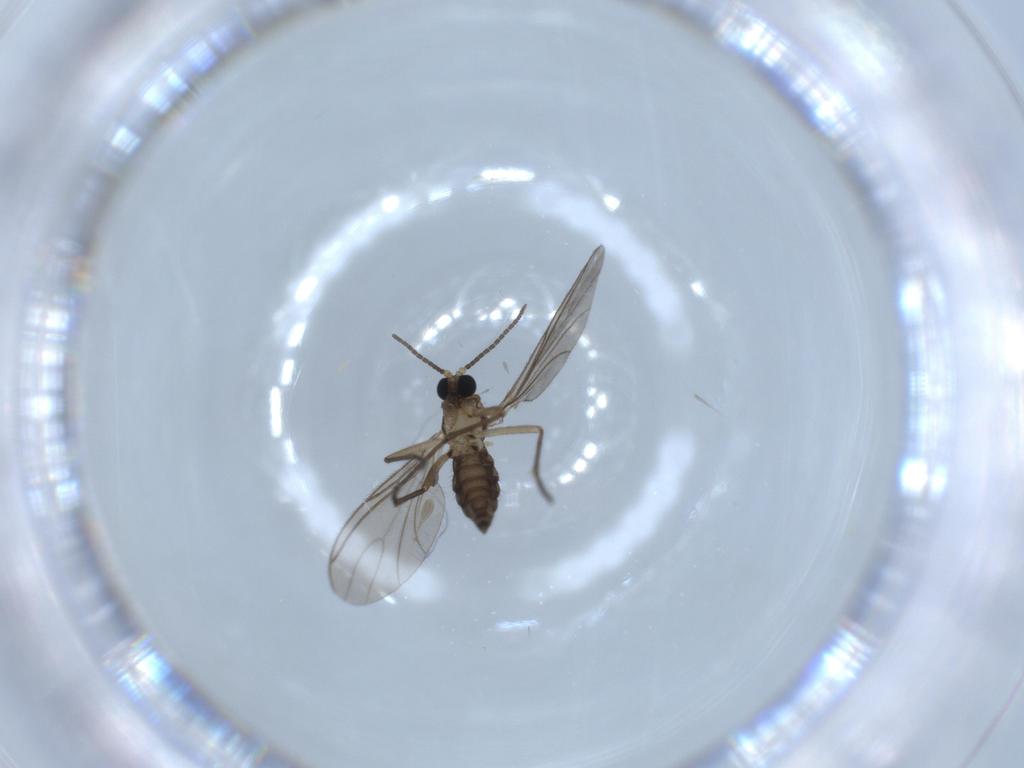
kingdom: Animalia
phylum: Arthropoda
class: Insecta
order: Diptera
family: Sciaridae
